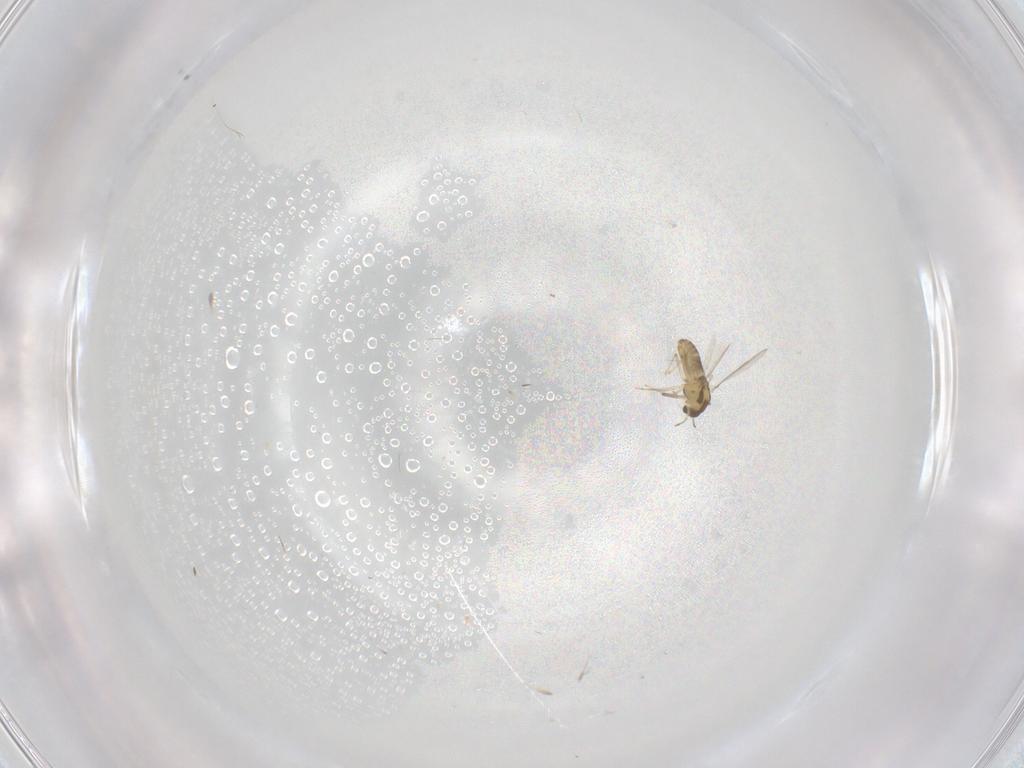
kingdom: Animalia
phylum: Arthropoda
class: Insecta
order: Diptera
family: Chironomidae
